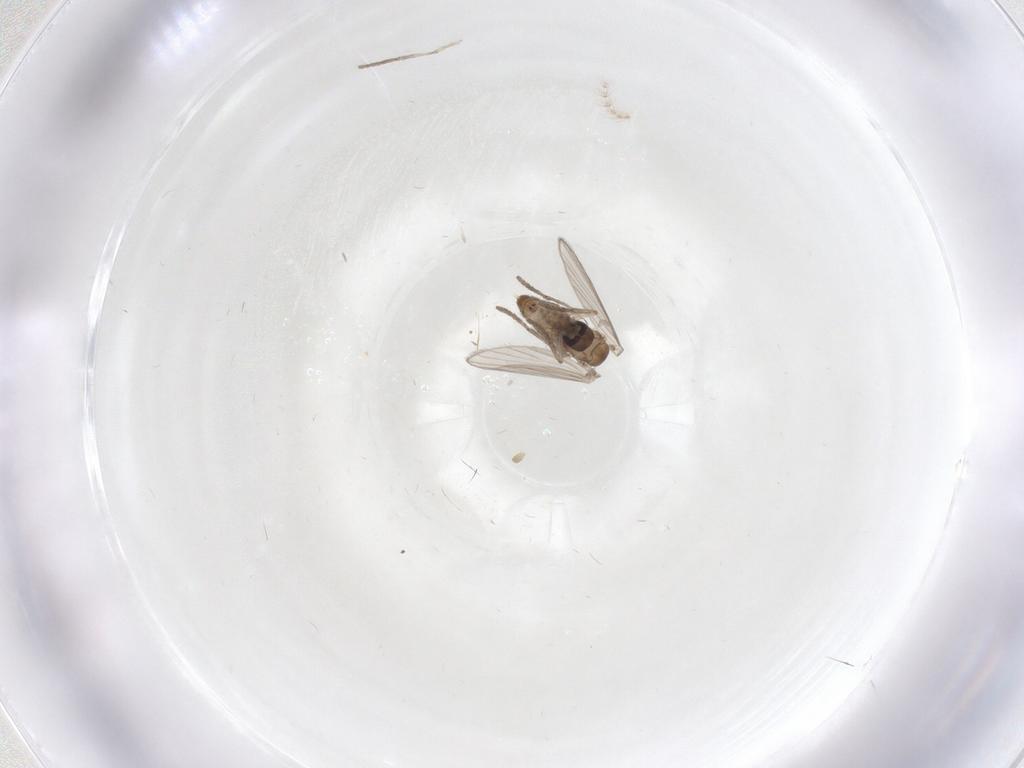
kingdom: Animalia
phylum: Arthropoda
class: Insecta
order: Diptera
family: Psychodidae
